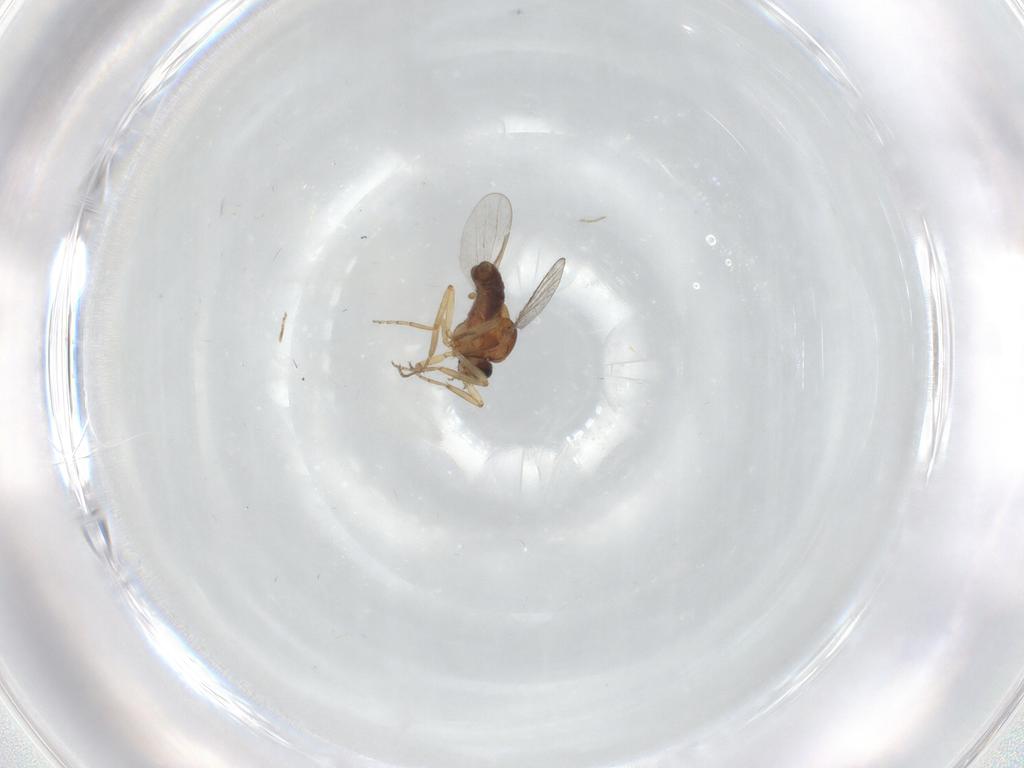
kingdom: Animalia
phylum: Arthropoda
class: Insecta
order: Diptera
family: Ceratopogonidae
